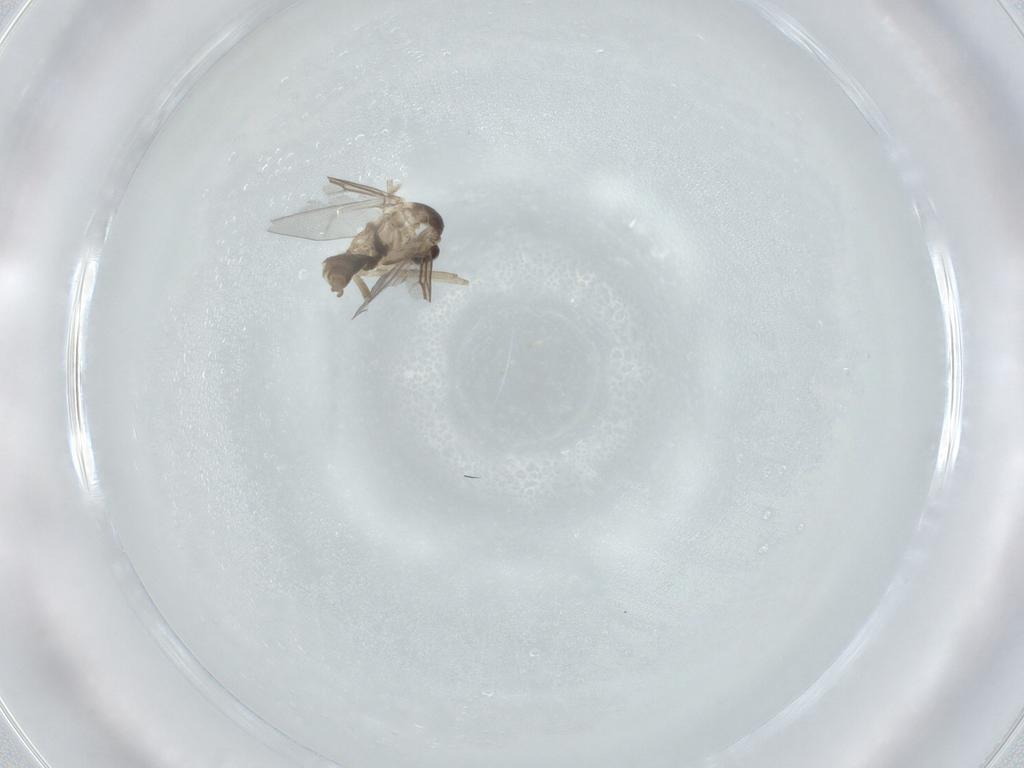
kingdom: Animalia
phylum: Arthropoda
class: Insecta
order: Diptera
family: Cecidomyiidae
